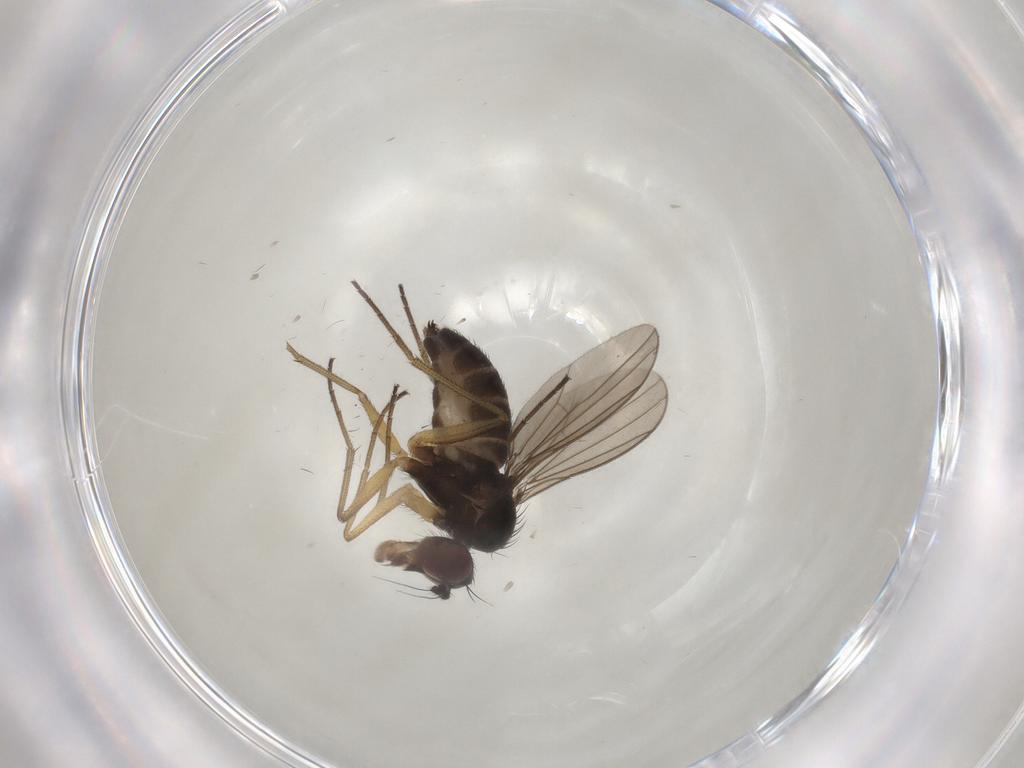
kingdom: Animalia
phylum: Arthropoda
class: Insecta
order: Diptera
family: Dolichopodidae
